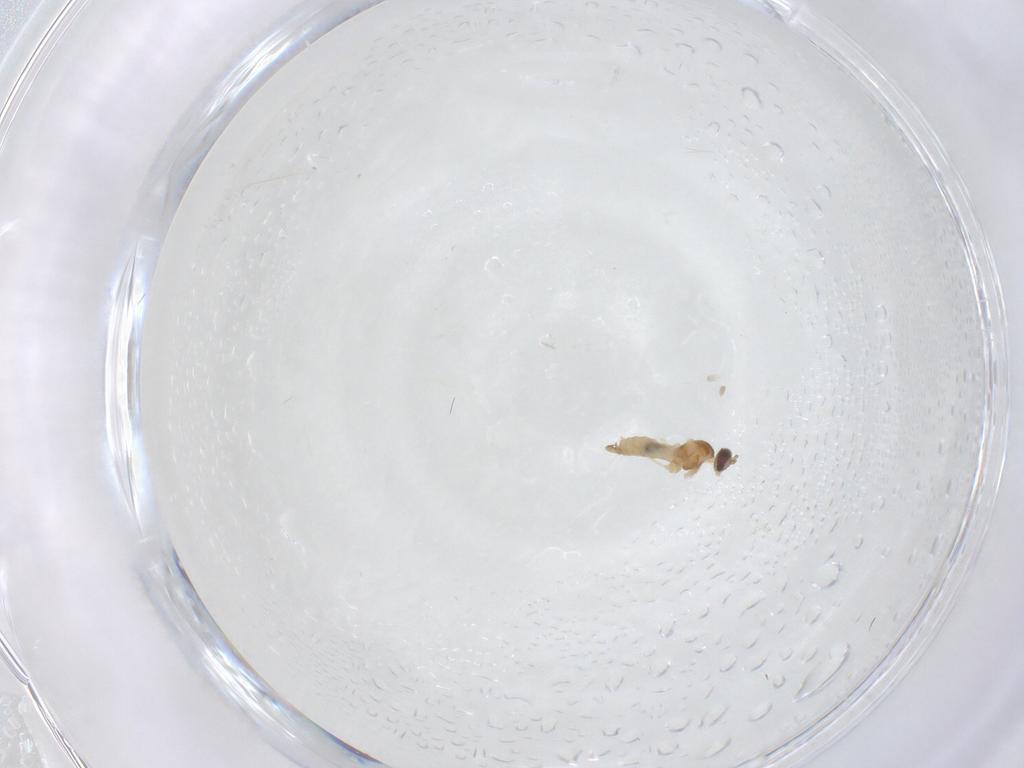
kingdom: Animalia
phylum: Arthropoda
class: Insecta
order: Diptera
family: Cecidomyiidae
